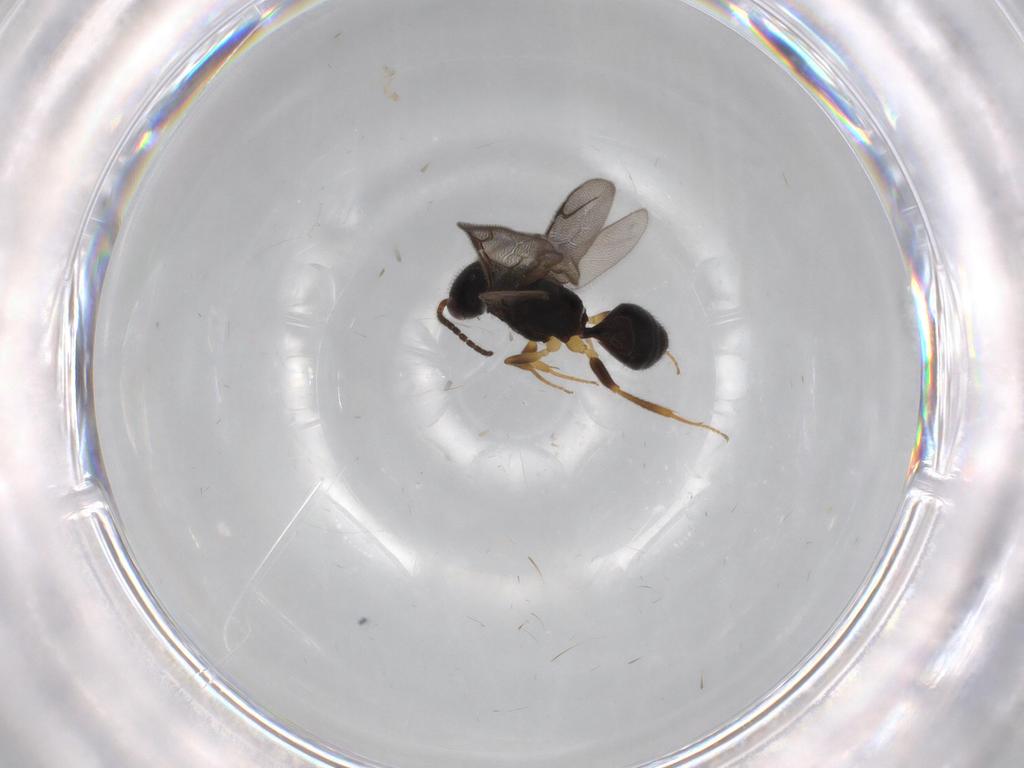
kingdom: Animalia
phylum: Arthropoda
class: Insecta
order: Hymenoptera
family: Bethylidae
